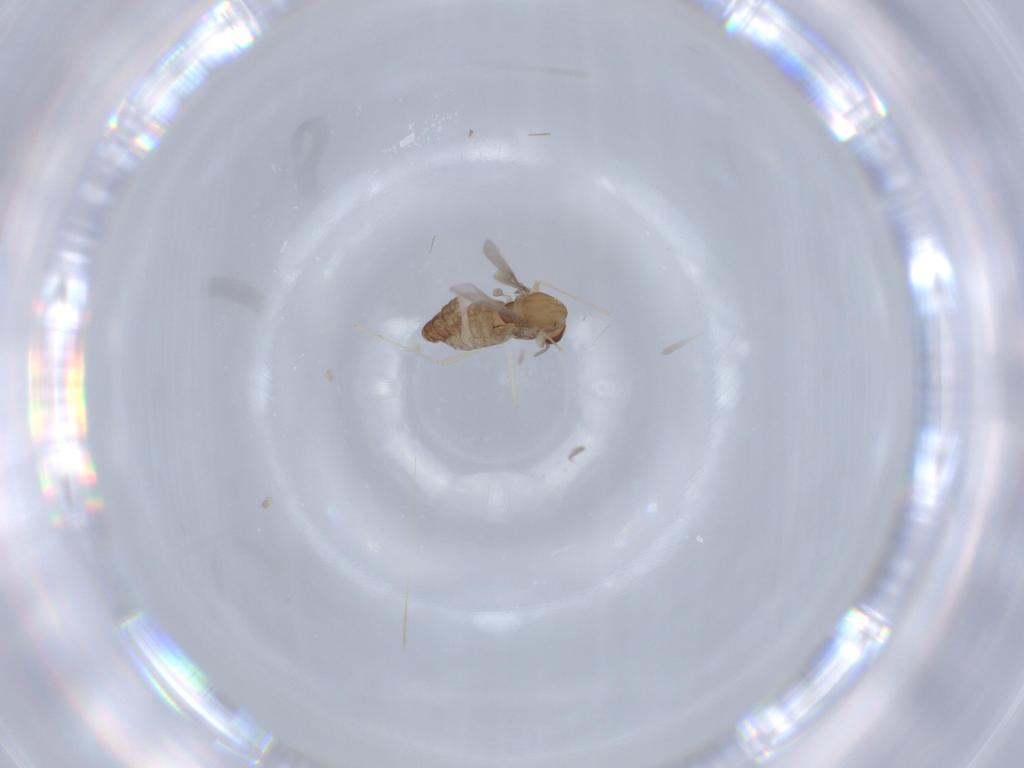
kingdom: Animalia
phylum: Arthropoda
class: Insecta
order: Diptera
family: Chironomidae
